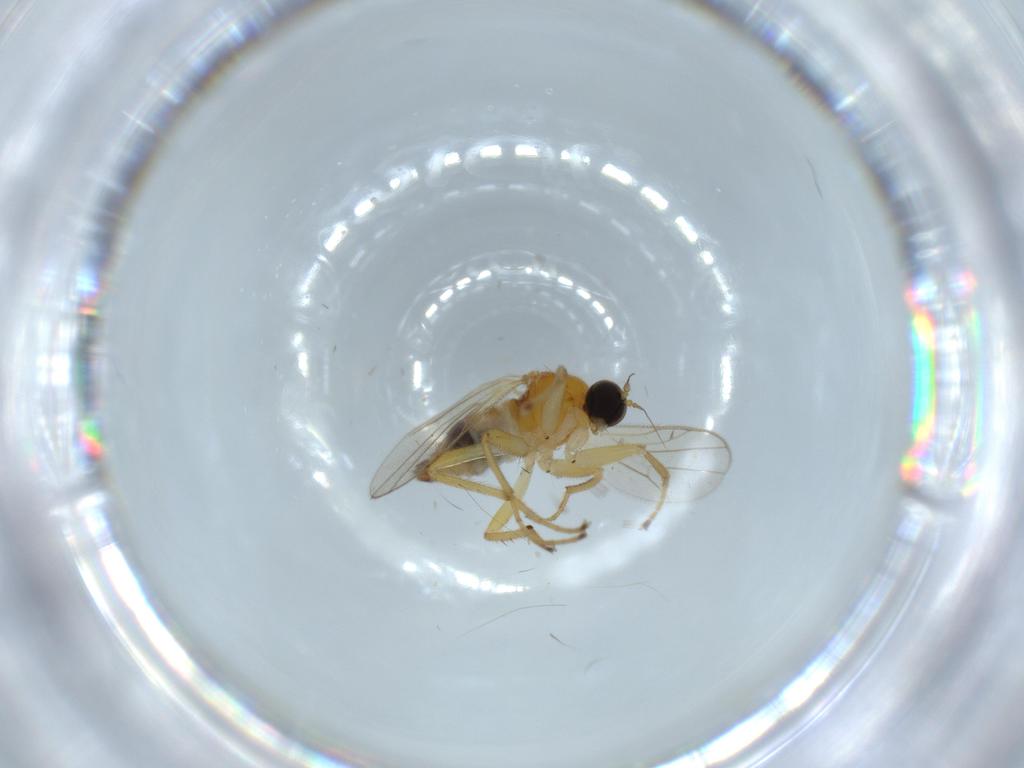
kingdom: Animalia
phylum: Arthropoda
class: Insecta
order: Diptera
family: Hybotidae
